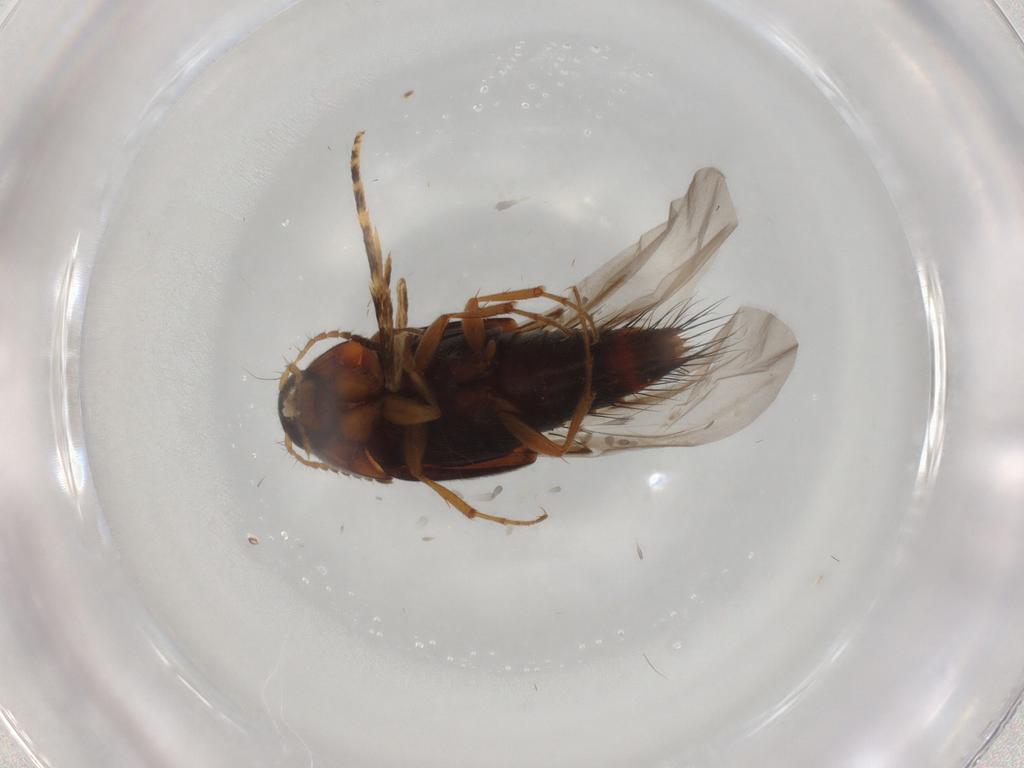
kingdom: Animalia
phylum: Arthropoda
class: Insecta
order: Coleoptera
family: Staphylinidae
